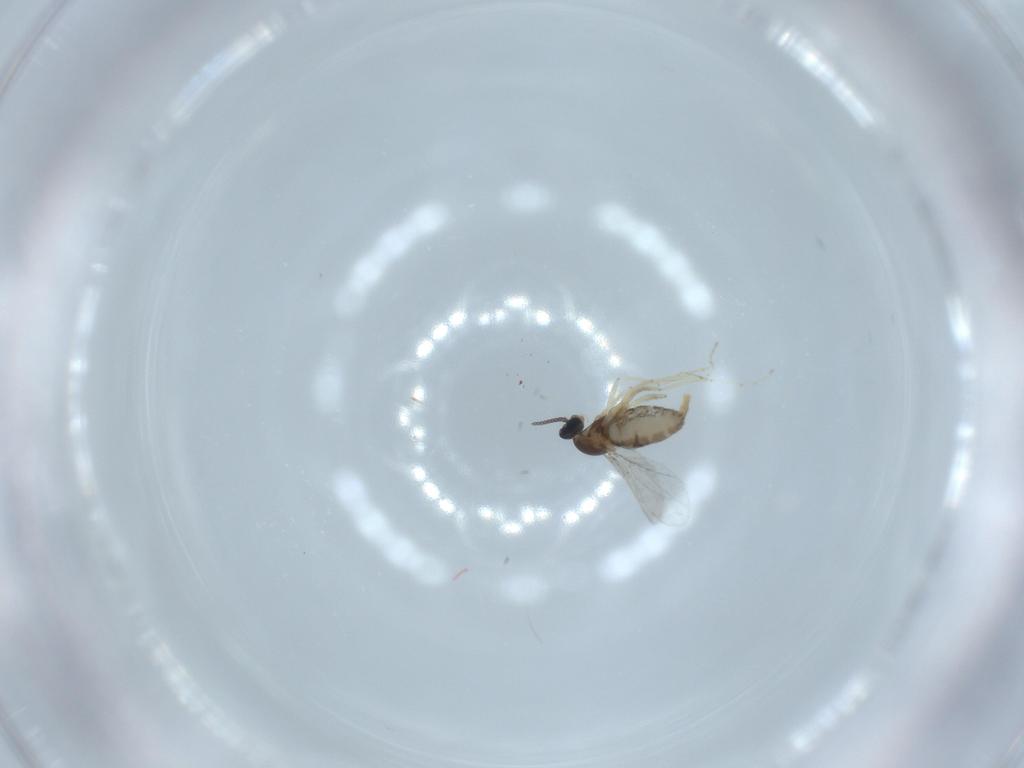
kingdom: Animalia
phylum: Arthropoda
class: Insecta
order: Diptera
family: Cecidomyiidae
